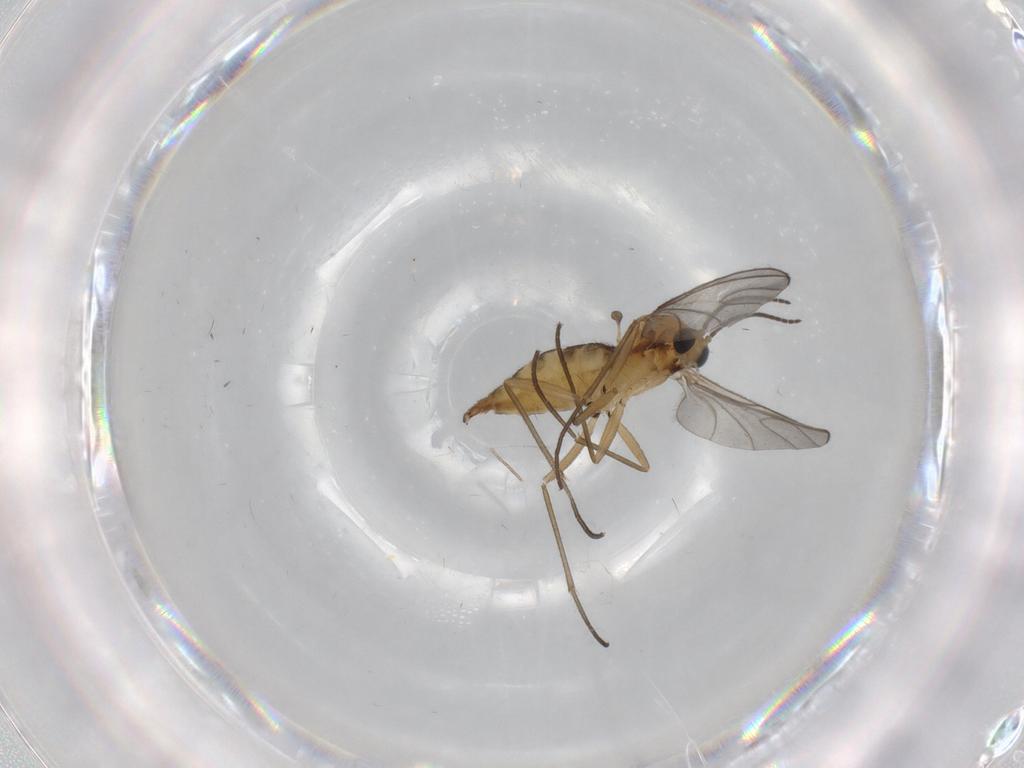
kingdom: Animalia
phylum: Arthropoda
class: Insecta
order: Diptera
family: Sciaridae
